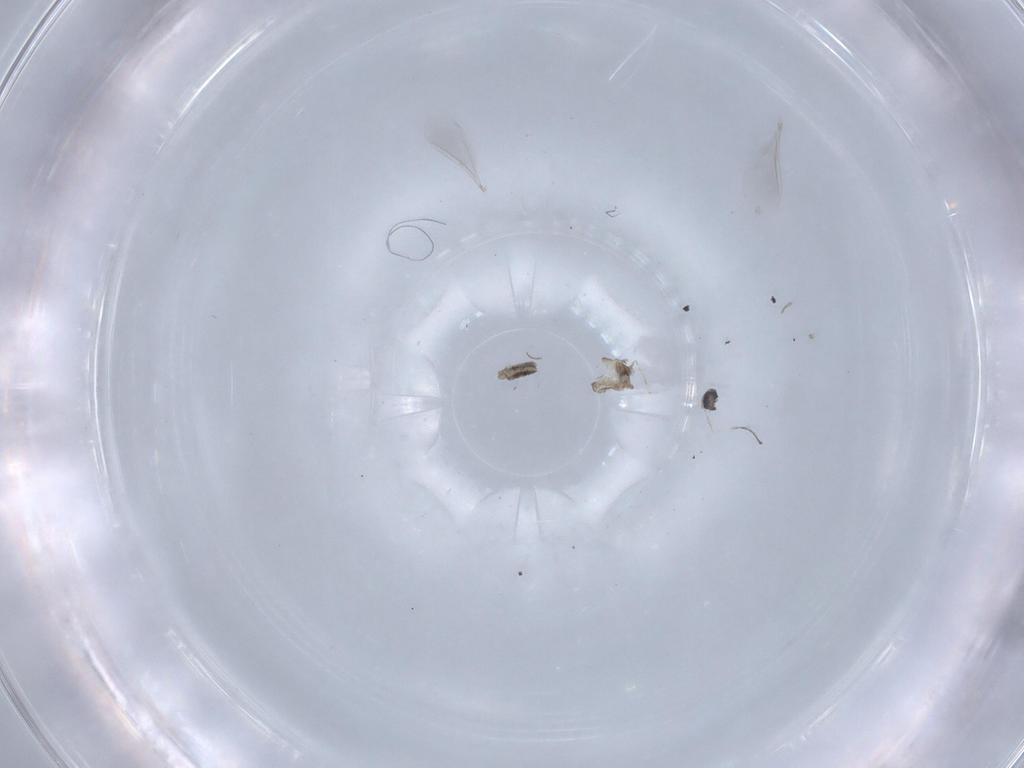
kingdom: Animalia
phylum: Arthropoda
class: Insecta
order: Diptera
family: Cecidomyiidae
